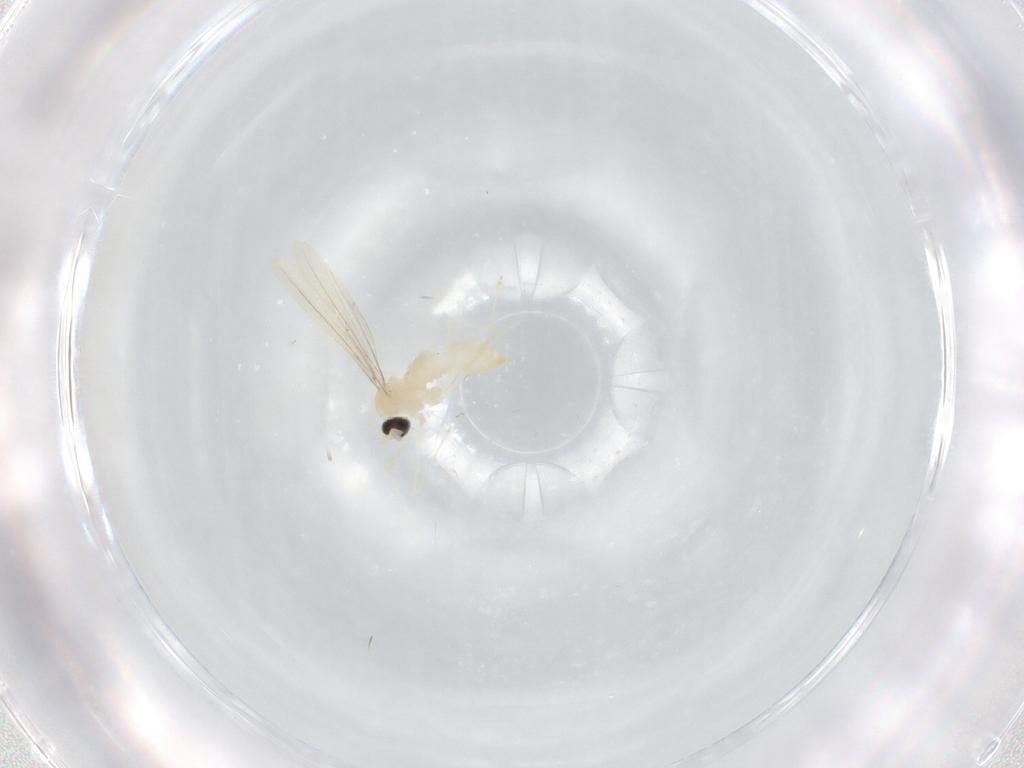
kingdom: Animalia
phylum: Arthropoda
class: Insecta
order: Diptera
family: Cecidomyiidae
